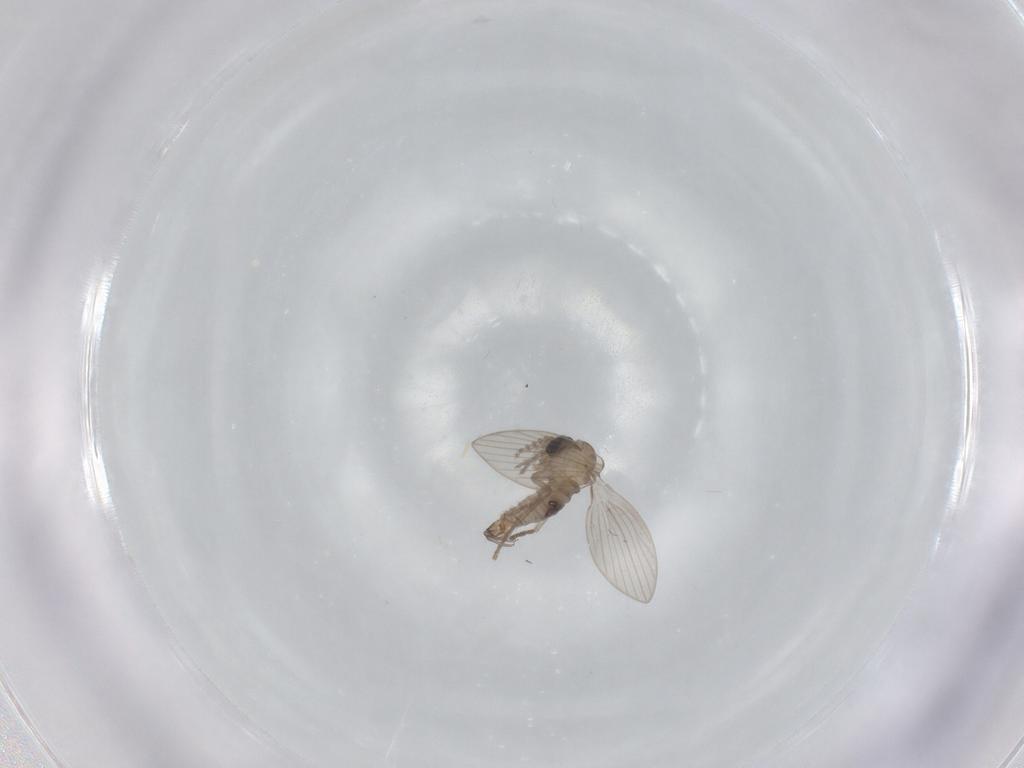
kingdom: Animalia
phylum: Arthropoda
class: Insecta
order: Diptera
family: Psychodidae
